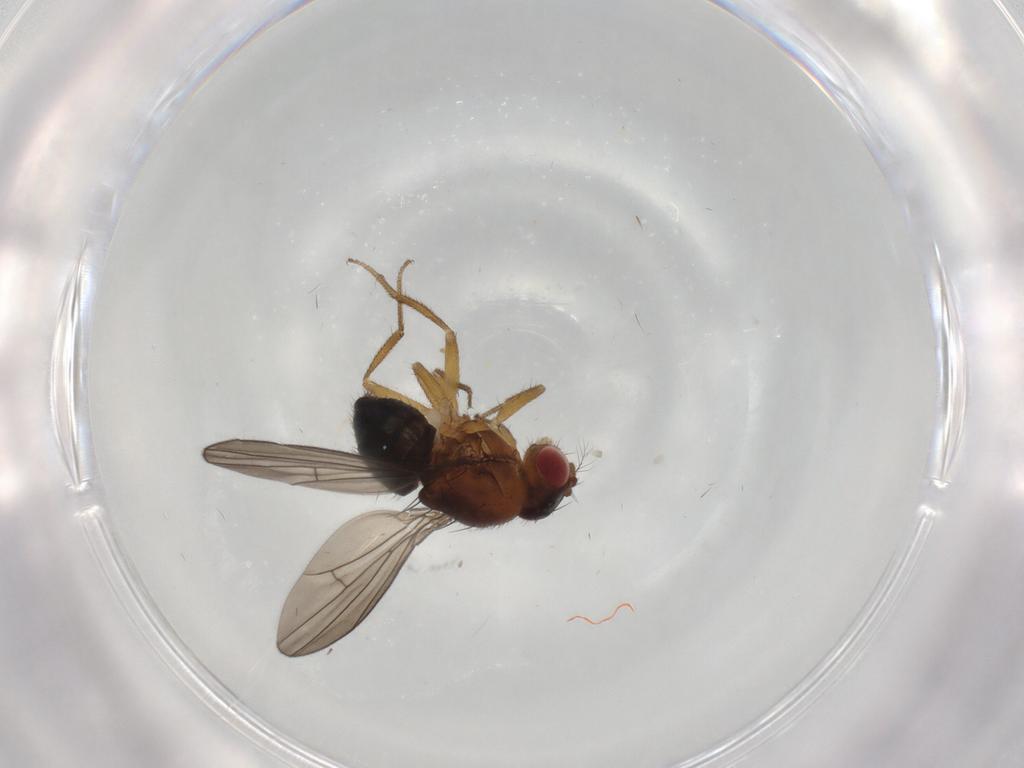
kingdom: Animalia
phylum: Arthropoda
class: Insecta
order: Diptera
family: Drosophilidae
